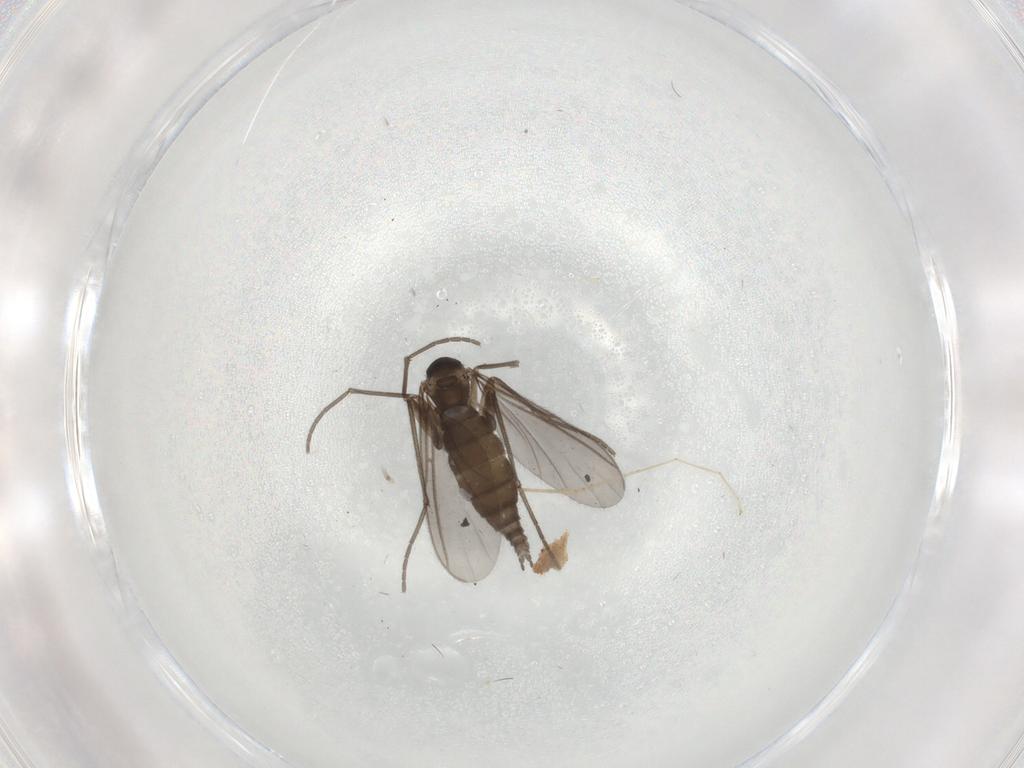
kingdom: Animalia
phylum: Arthropoda
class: Insecta
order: Diptera
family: Sciaridae
